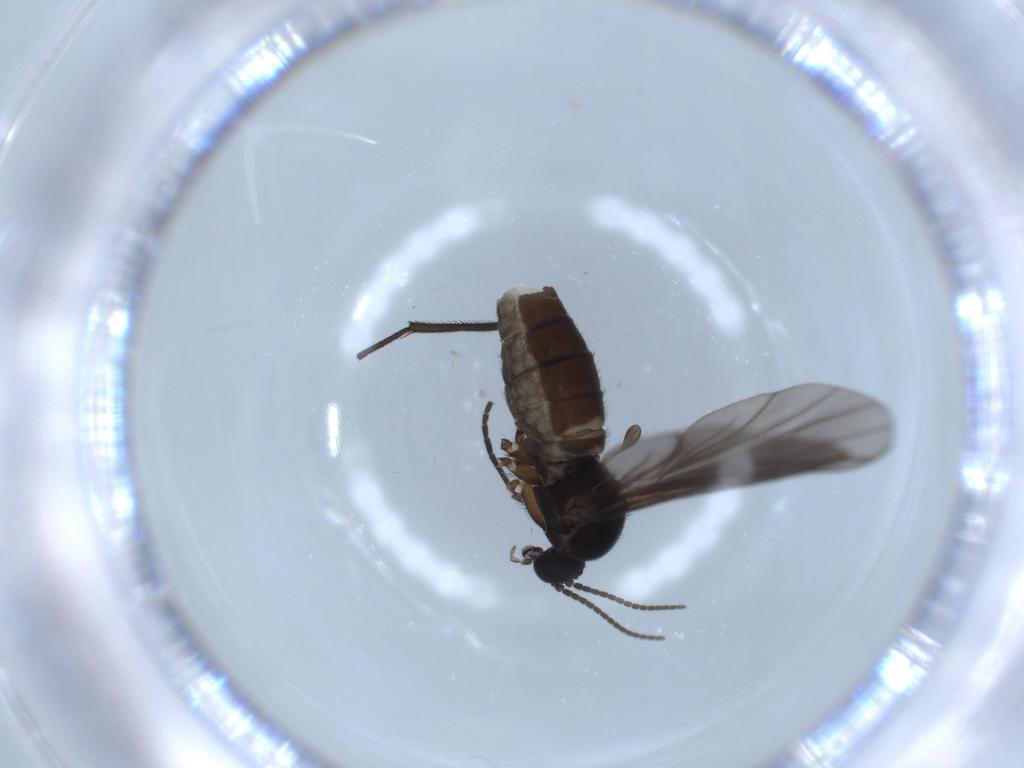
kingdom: Animalia
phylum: Arthropoda
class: Insecta
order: Diptera
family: Sciaridae
